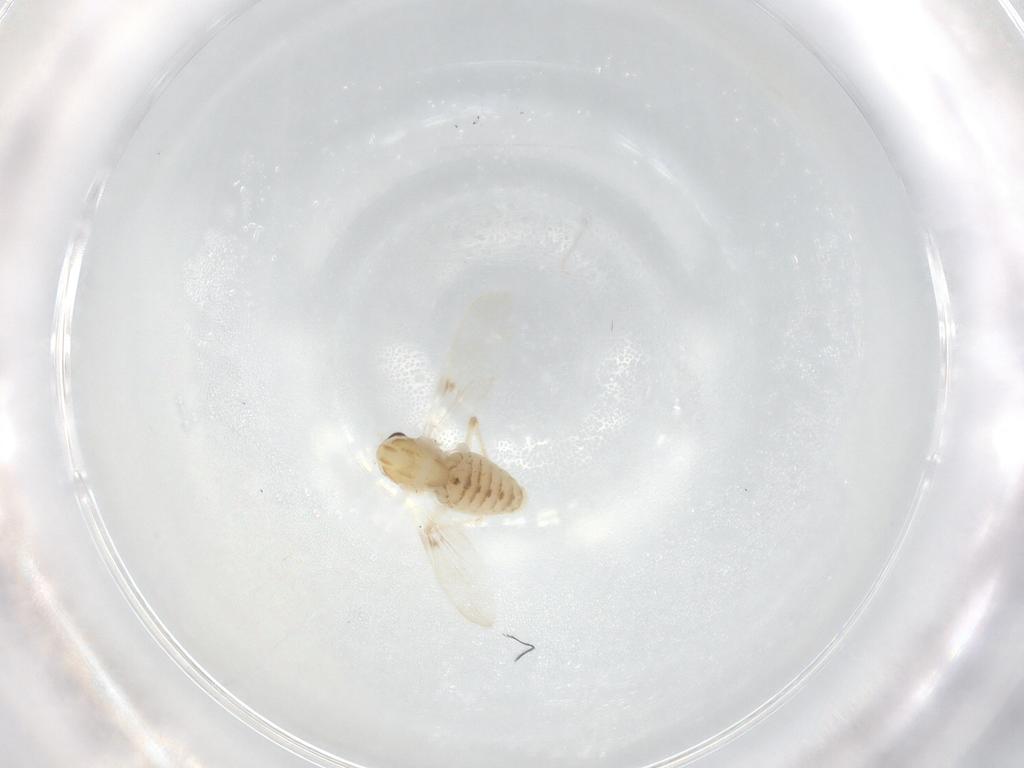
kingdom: Animalia
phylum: Arthropoda
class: Insecta
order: Diptera
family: Chironomidae
